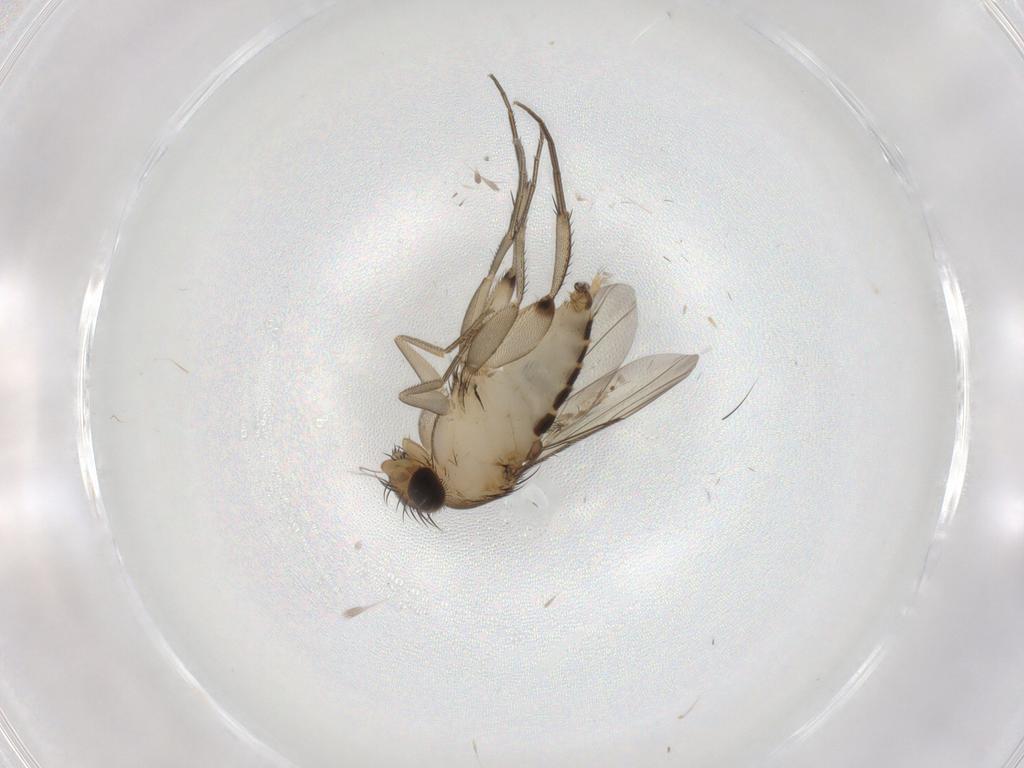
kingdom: Animalia
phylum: Arthropoda
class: Insecta
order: Diptera
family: Phoridae
